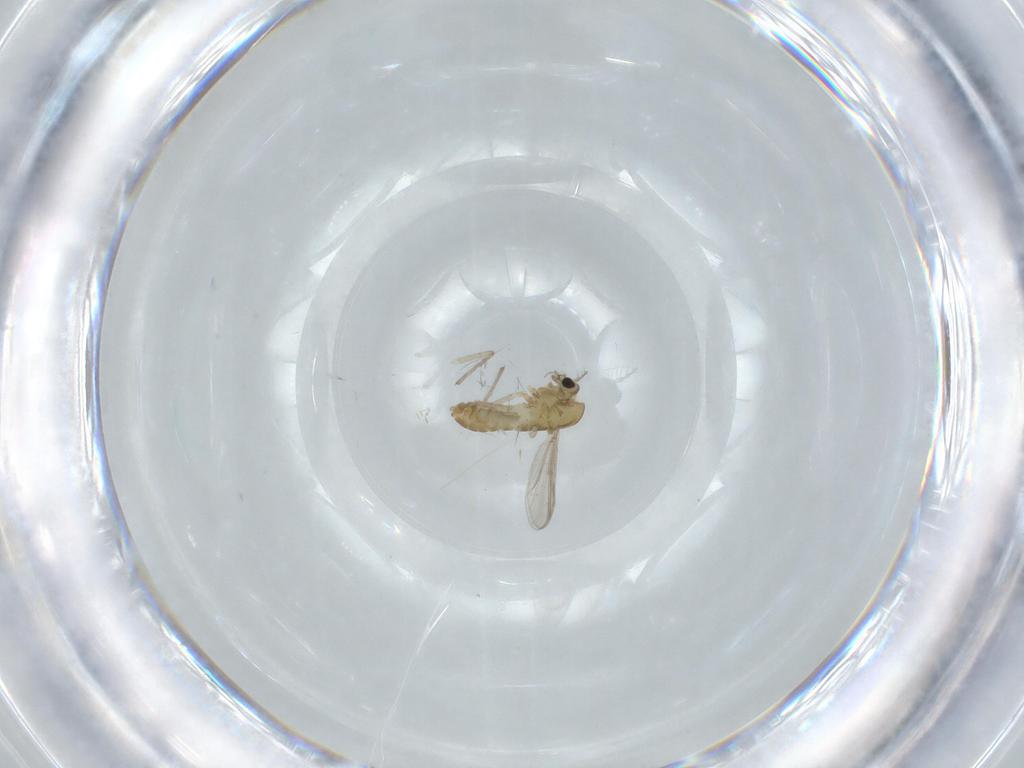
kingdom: Animalia
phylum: Arthropoda
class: Insecta
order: Diptera
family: Chironomidae
